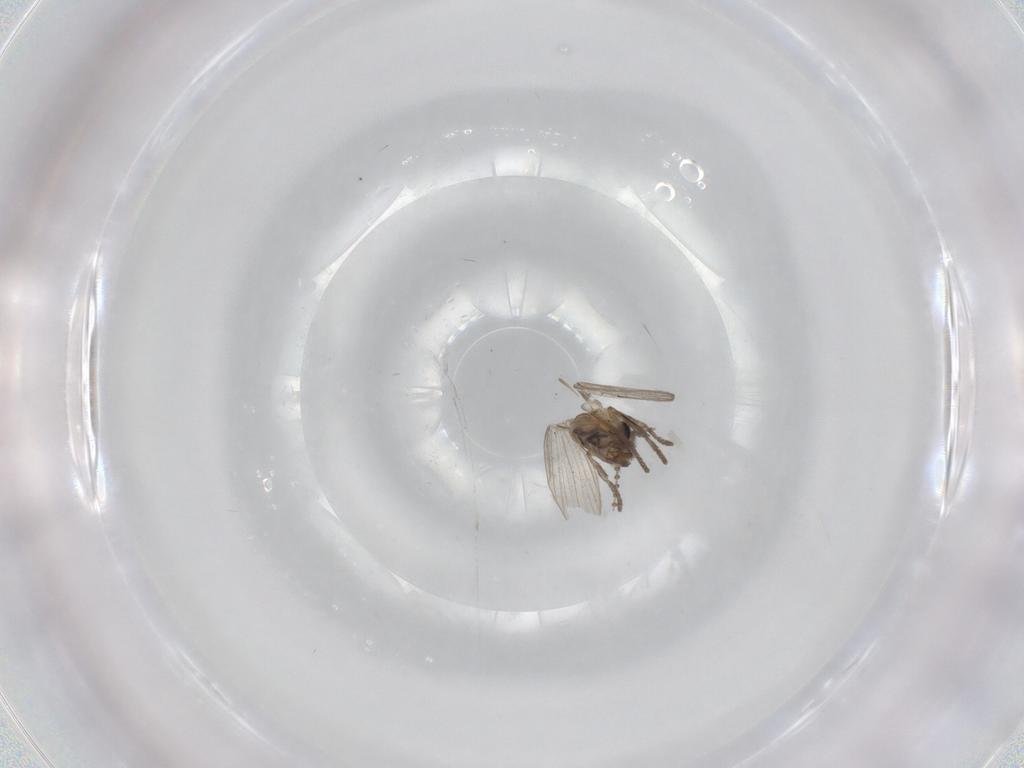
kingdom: Animalia
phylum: Arthropoda
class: Insecta
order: Diptera
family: Psychodidae
